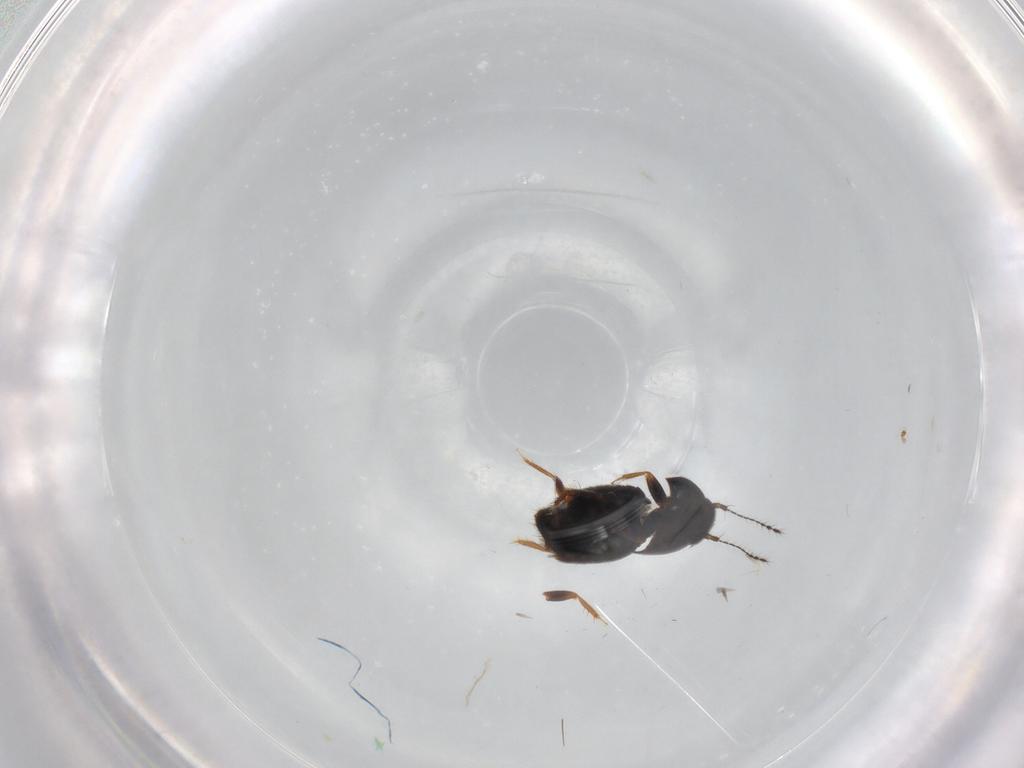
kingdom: Animalia
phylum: Arthropoda
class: Insecta
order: Coleoptera
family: Ptiliidae
